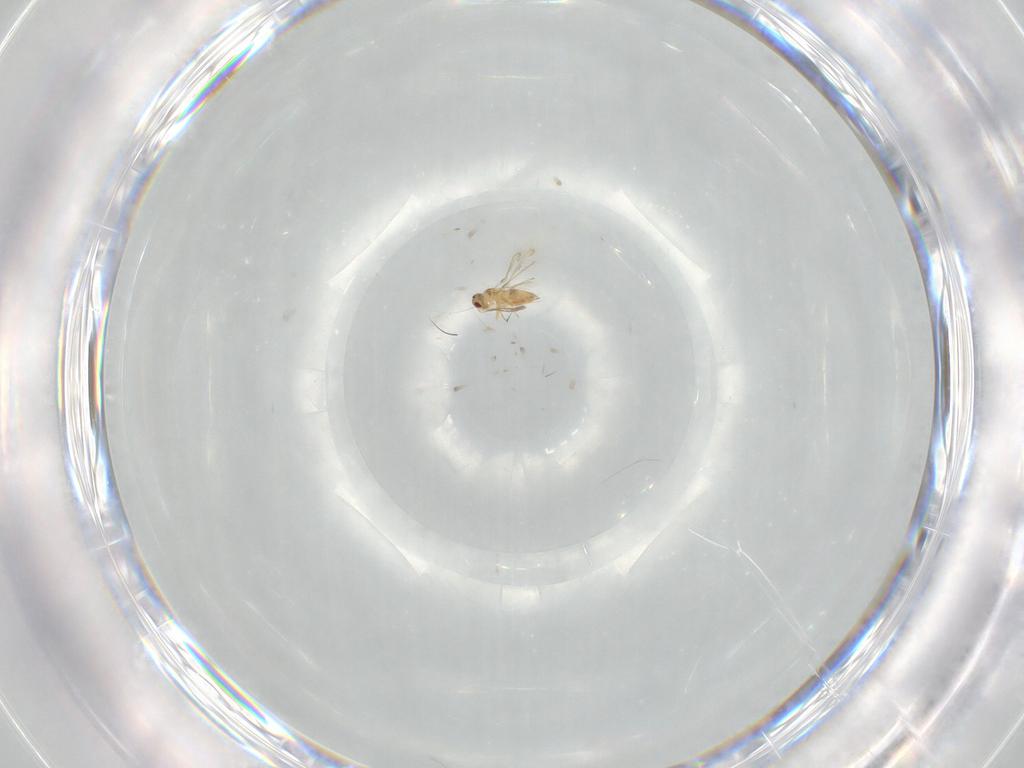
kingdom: Animalia
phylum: Arthropoda
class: Insecta
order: Hymenoptera
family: Mymaridae
